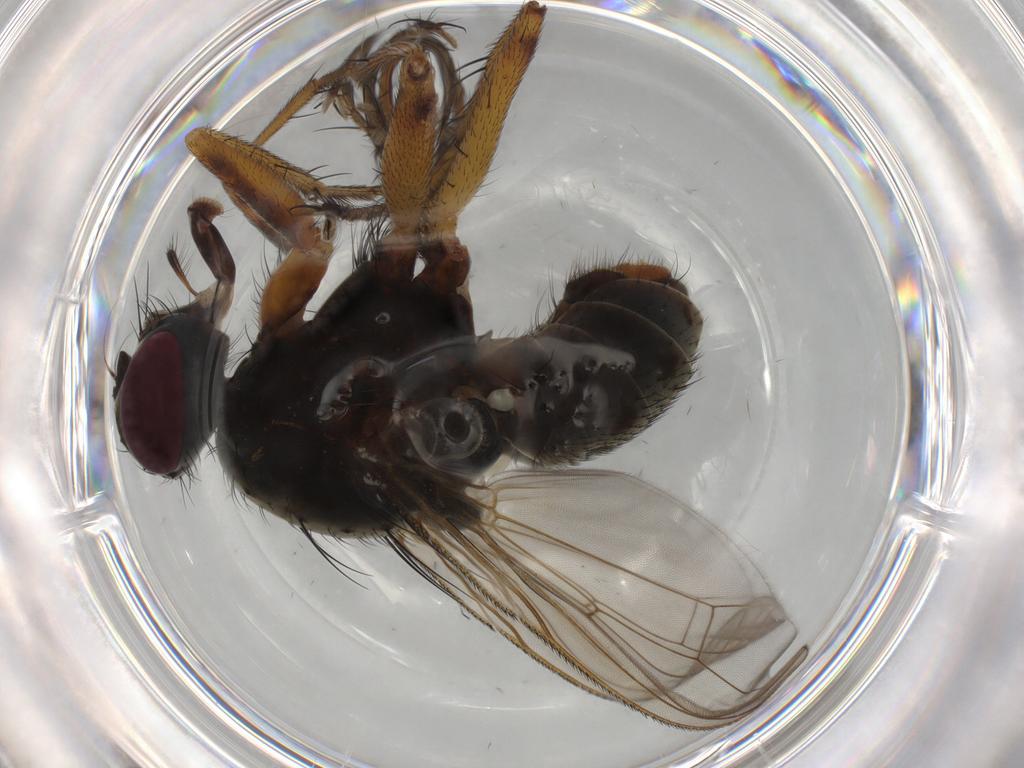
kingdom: Animalia
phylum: Arthropoda
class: Insecta
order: Diptera
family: Muscidae
